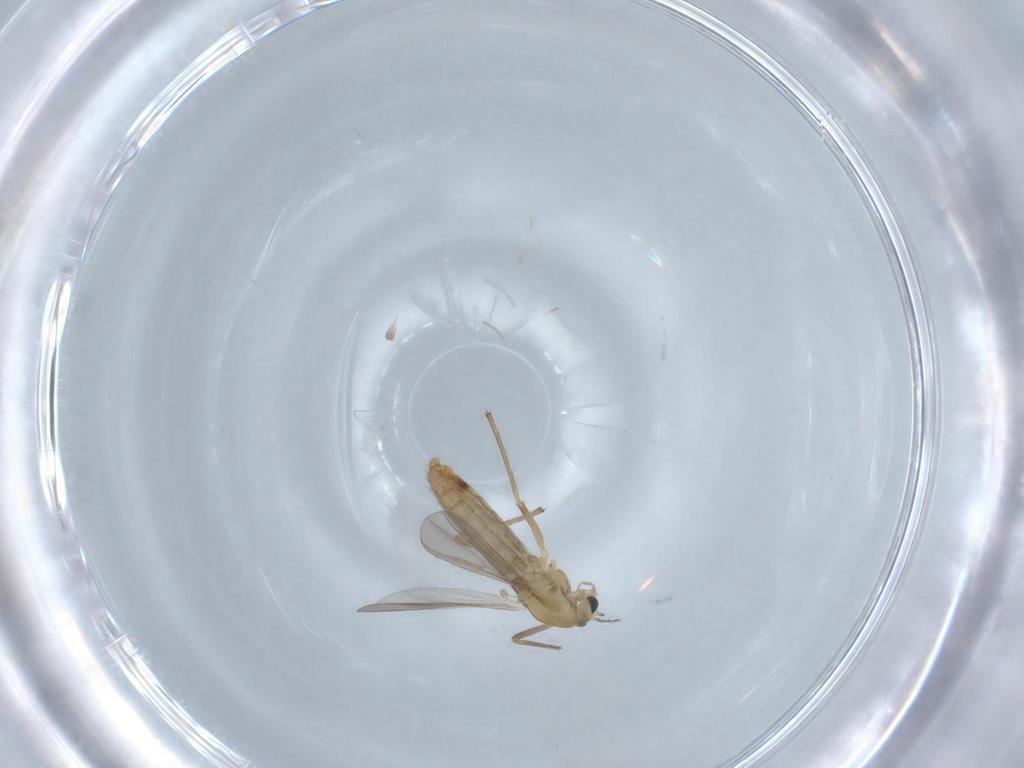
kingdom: Animalia
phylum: Arthropoda
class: Insecta
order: Diptera
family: Chironomidae
